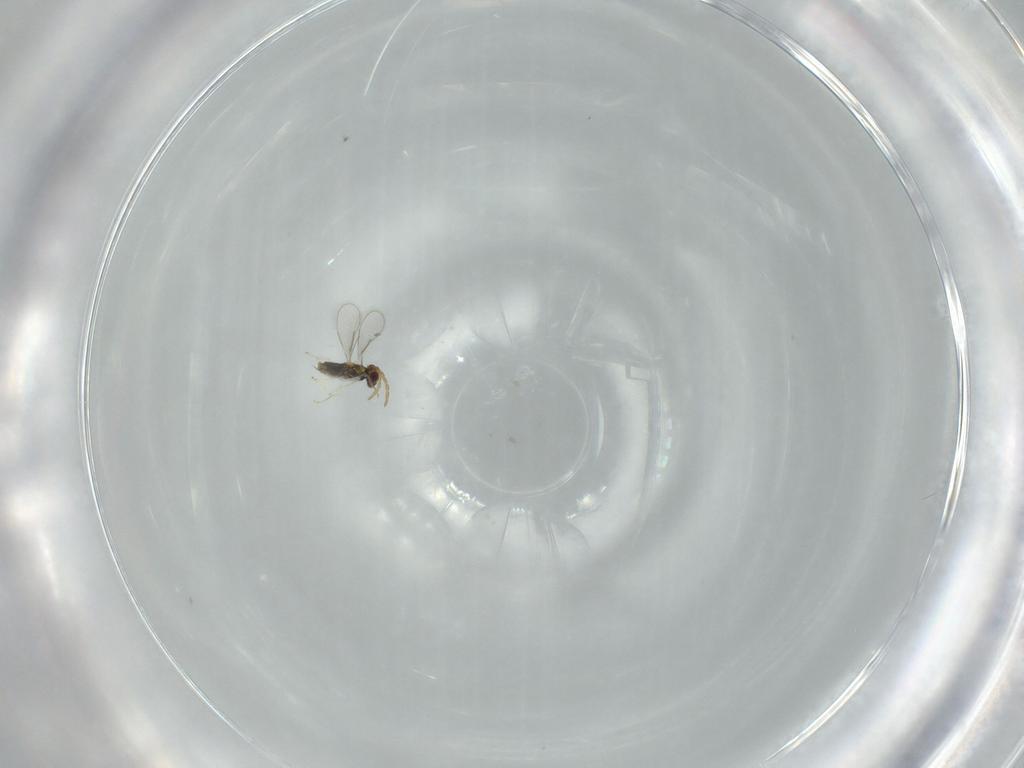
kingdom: Animalia
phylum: Arthropoda
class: Insecta
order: Hymenoptera
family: Aphelinidae
